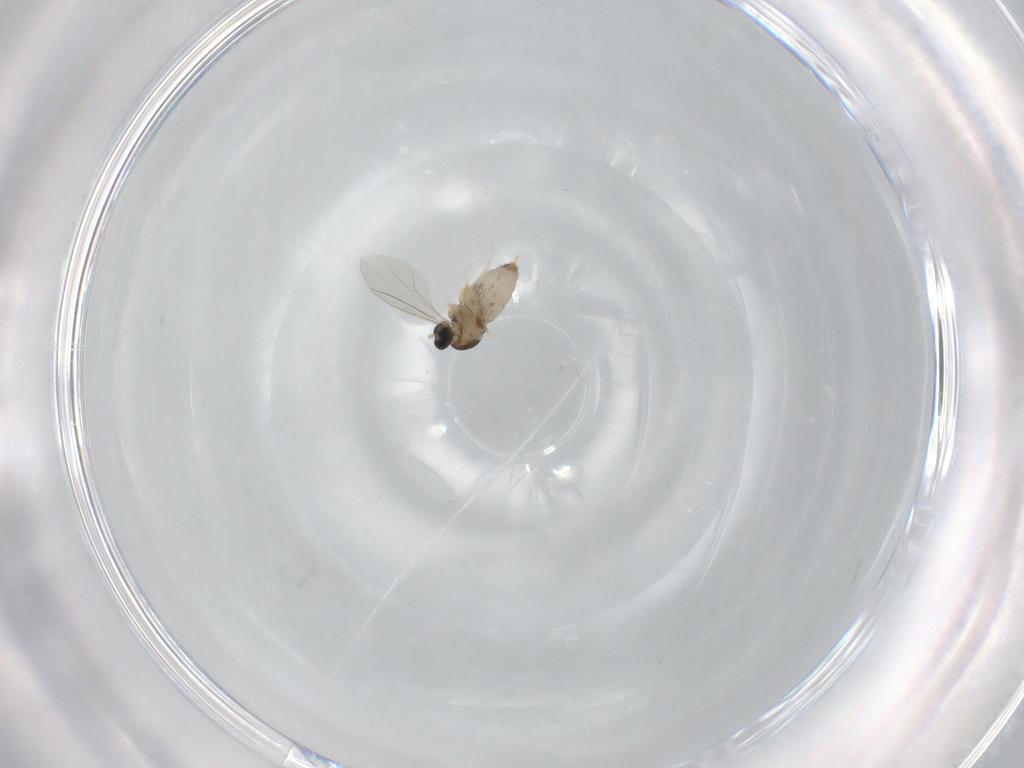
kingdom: Animalia
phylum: Arthropoda
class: Insecta
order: Diptera
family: Cecidomyiidae
